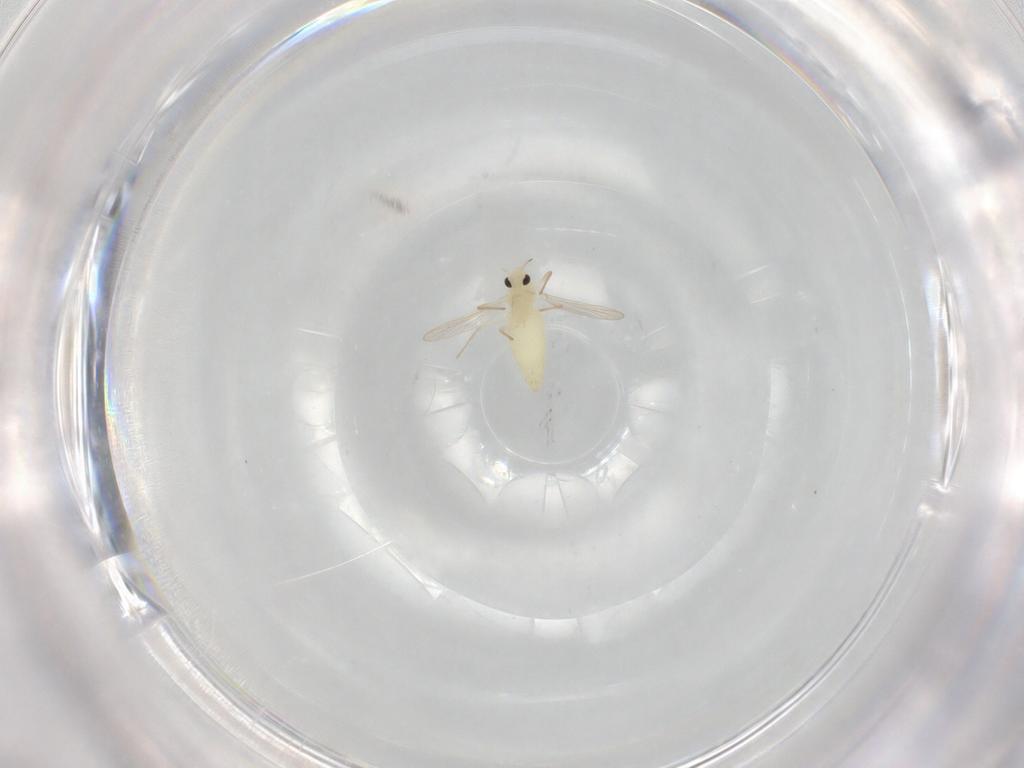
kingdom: Animalia
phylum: Arthropoda
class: Insecta
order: Diptera
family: Chironomidae
